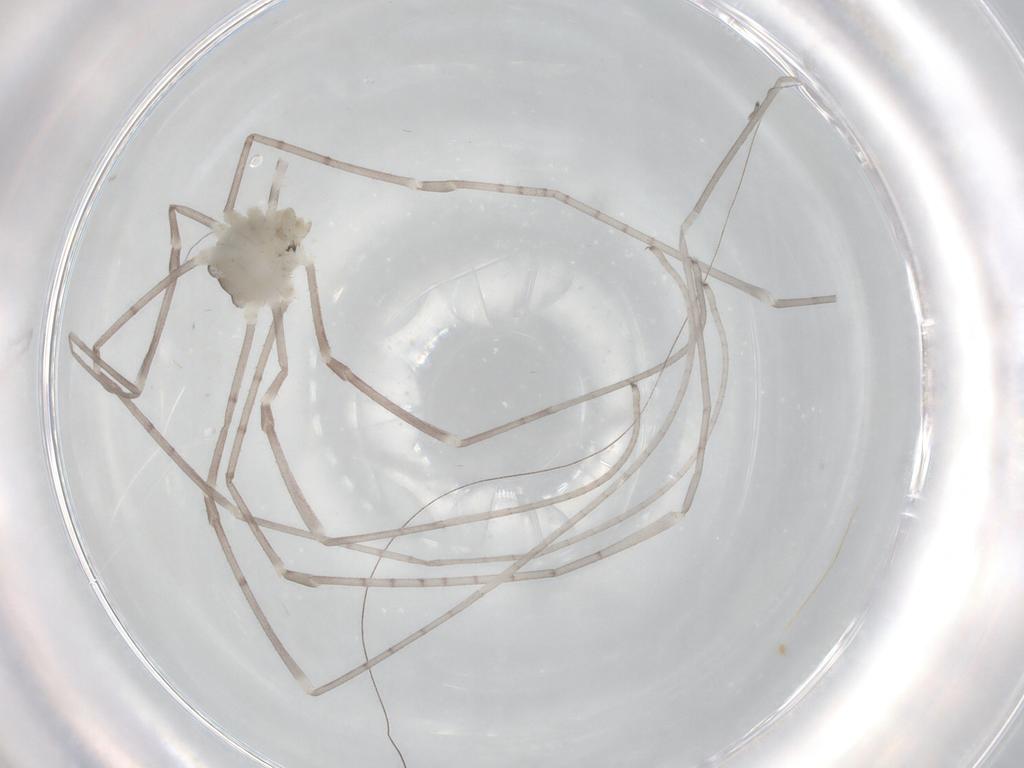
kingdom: Animalia
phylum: Arthropoda
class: Arachnida
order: Opiliones
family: Sclerosomatidae
